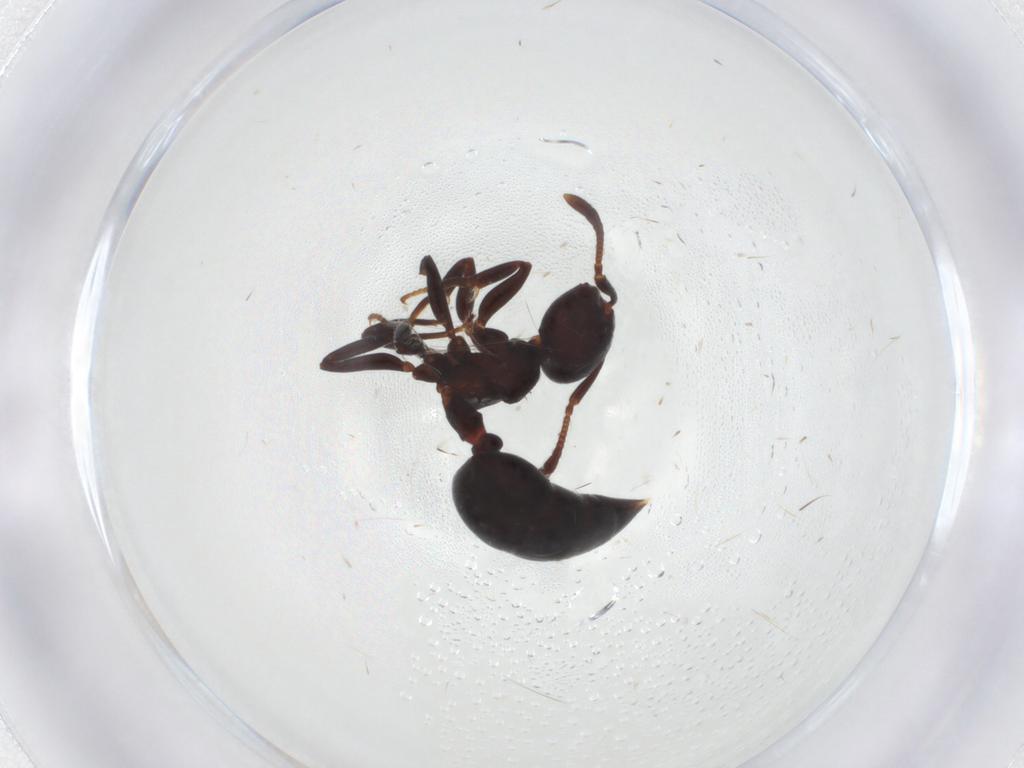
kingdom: Animalia
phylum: Arthropoda
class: Insecta
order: Hymenoptera
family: Formicidae
